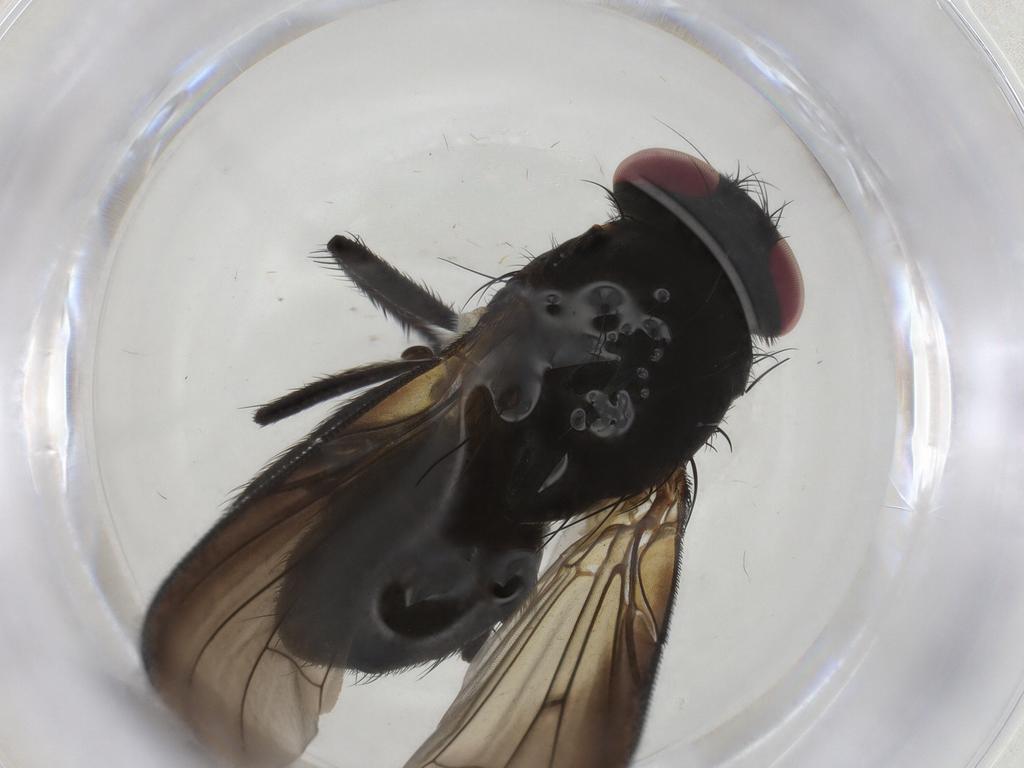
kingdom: Animalia
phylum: Arthropoda
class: Insecta
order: Diptera
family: Fanniidae
